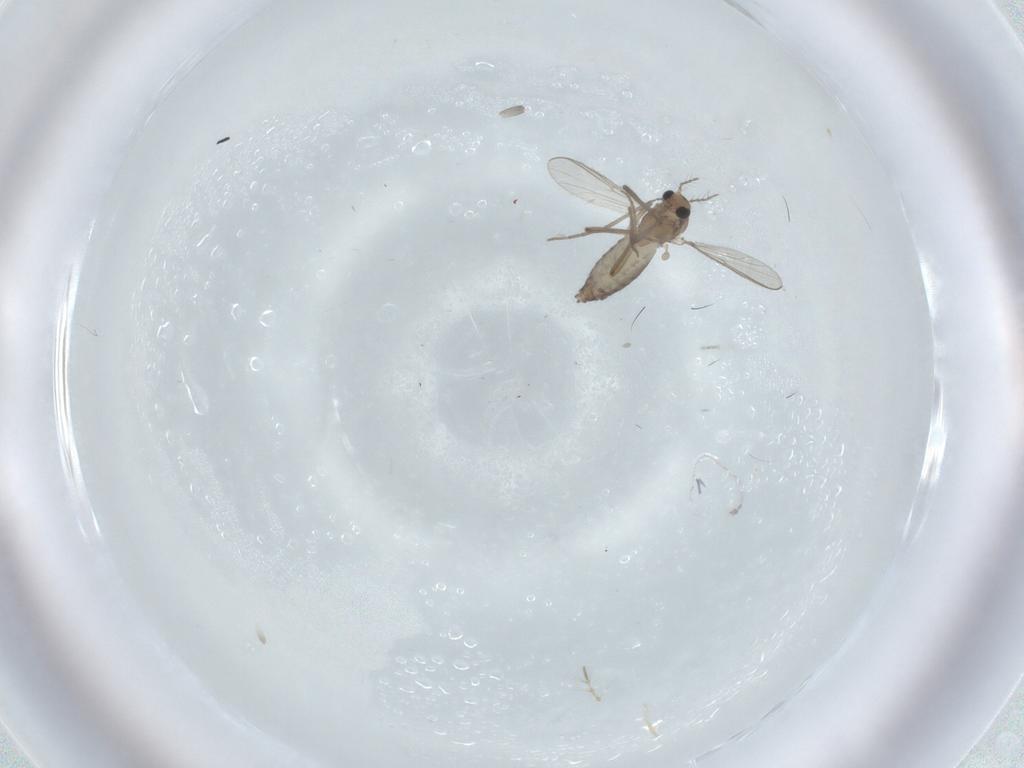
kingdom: Animalia
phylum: Arthropoda
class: Insecta
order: Diptera
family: Chironomidae
